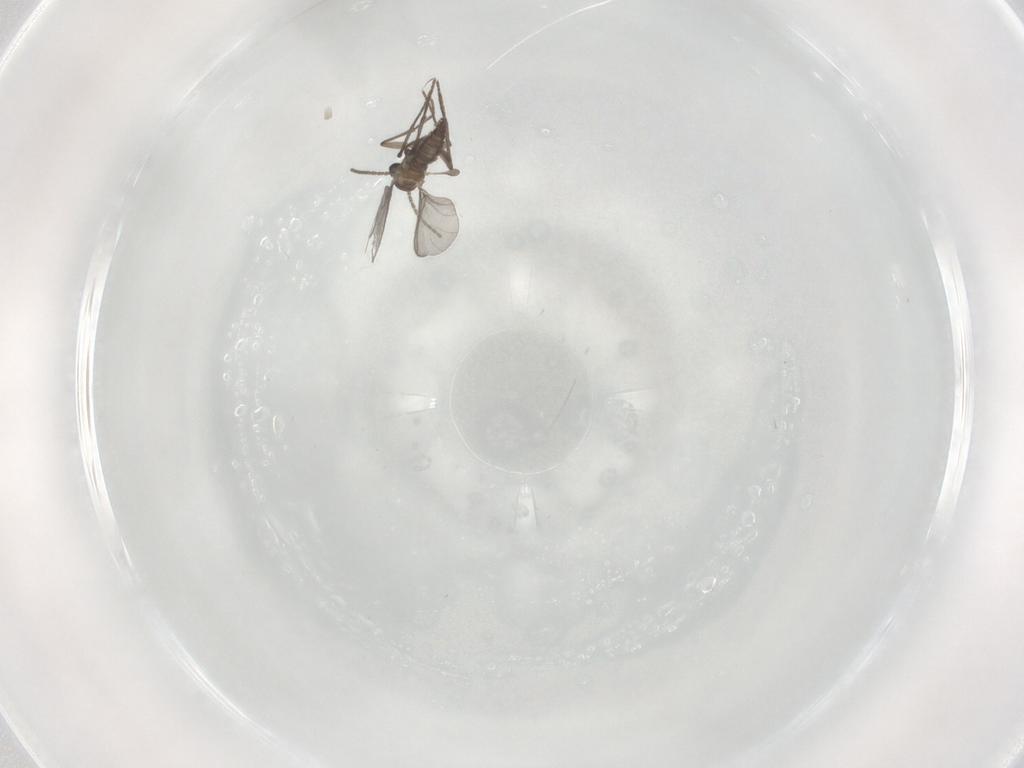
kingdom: Animalia
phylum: Arthropoda
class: Insecta
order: Diptera
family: Phoridae
